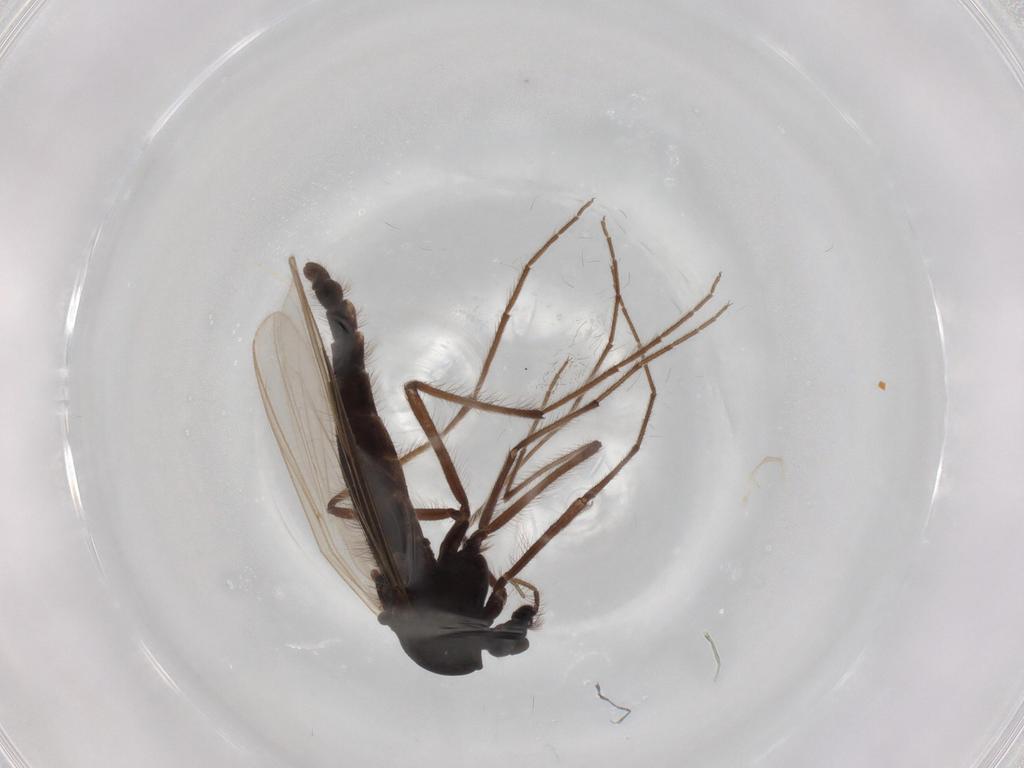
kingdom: Animalia
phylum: Arthropoda
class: Insecta
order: Diptera
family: Chironomidae
